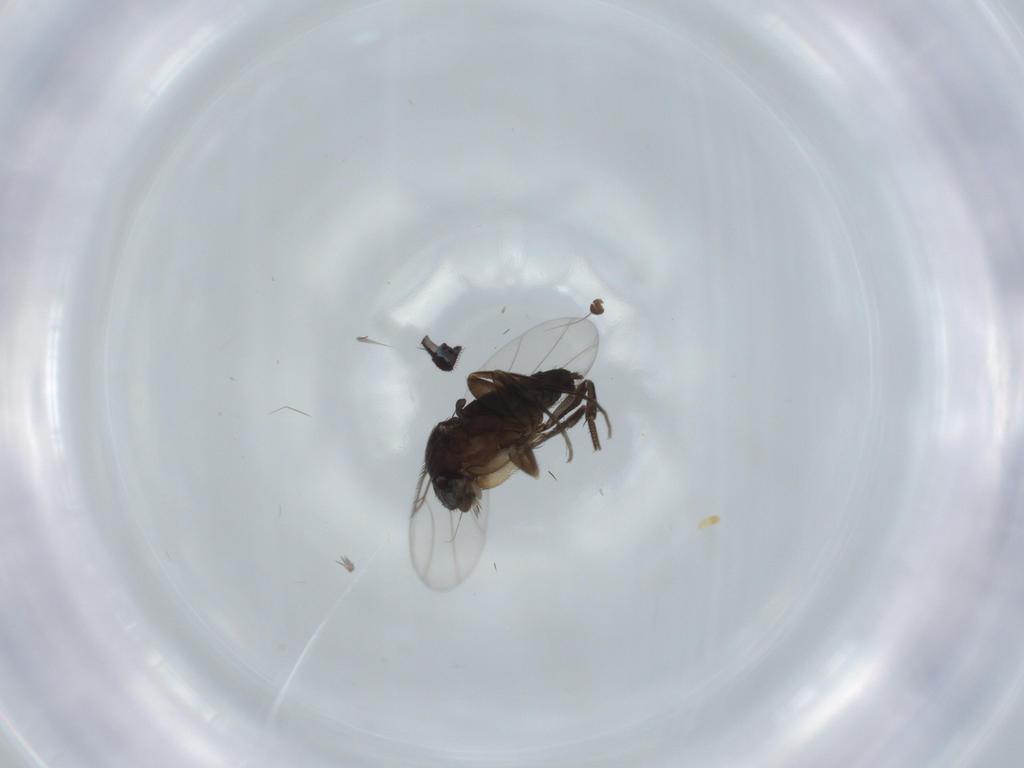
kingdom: Animalia
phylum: Arthropoda
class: Insecta
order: Diptera
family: Phoridae
